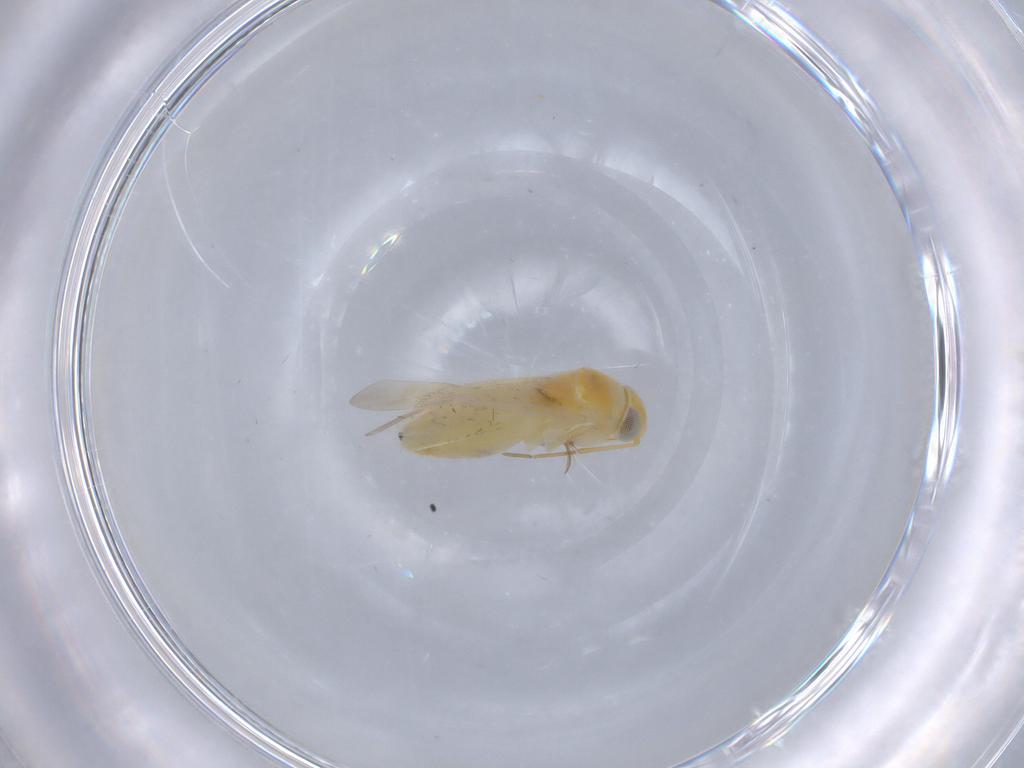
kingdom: Animalia
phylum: Arthropoda
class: Insecta
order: Hemiptera
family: Miridae
